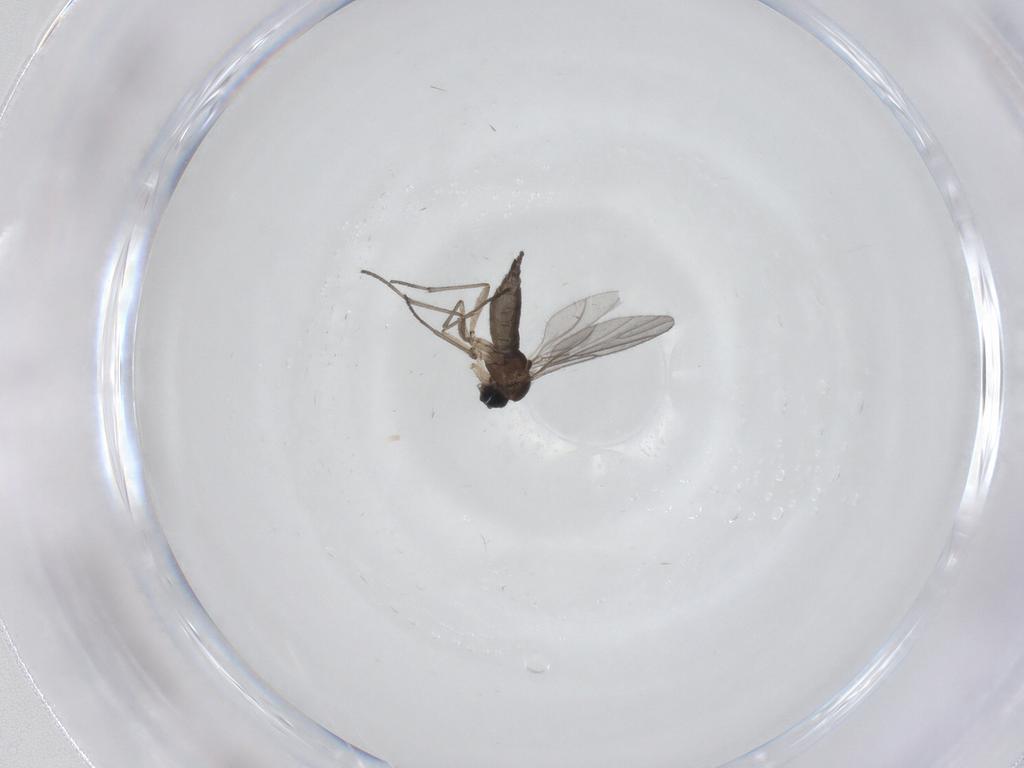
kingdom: Animalia
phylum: Arthropoda
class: Insecta
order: Diptera
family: Sciaridae
